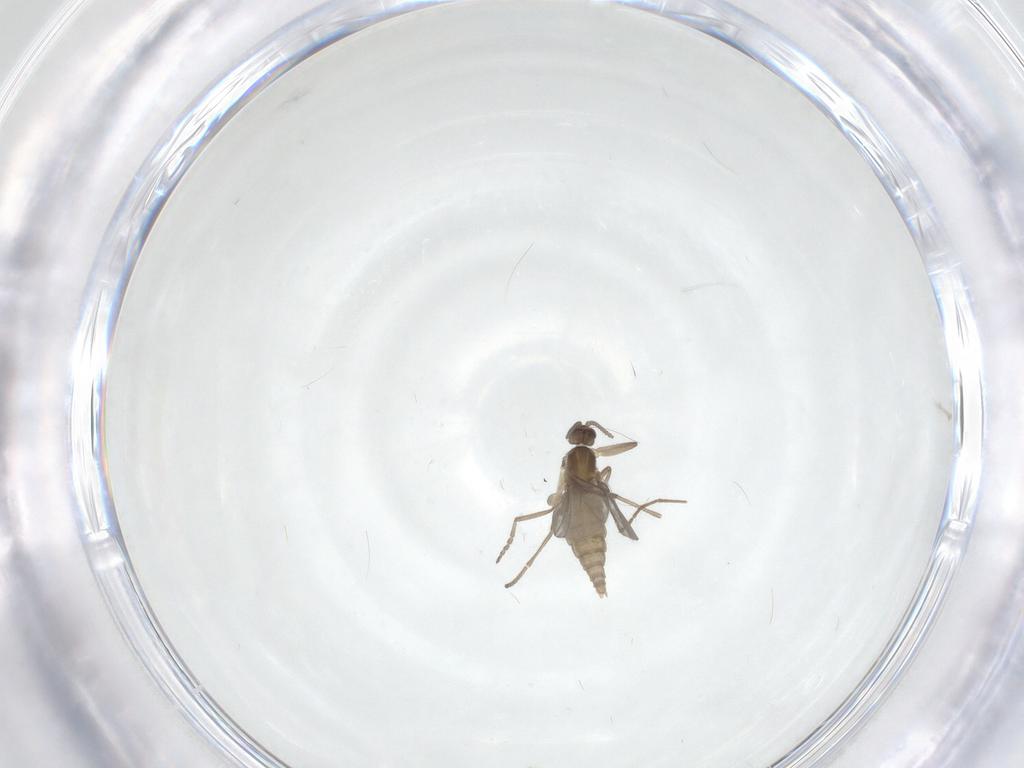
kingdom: Animalia
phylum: Arthropoda
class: Insecta
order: Diptera
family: Cecidomyiidae
